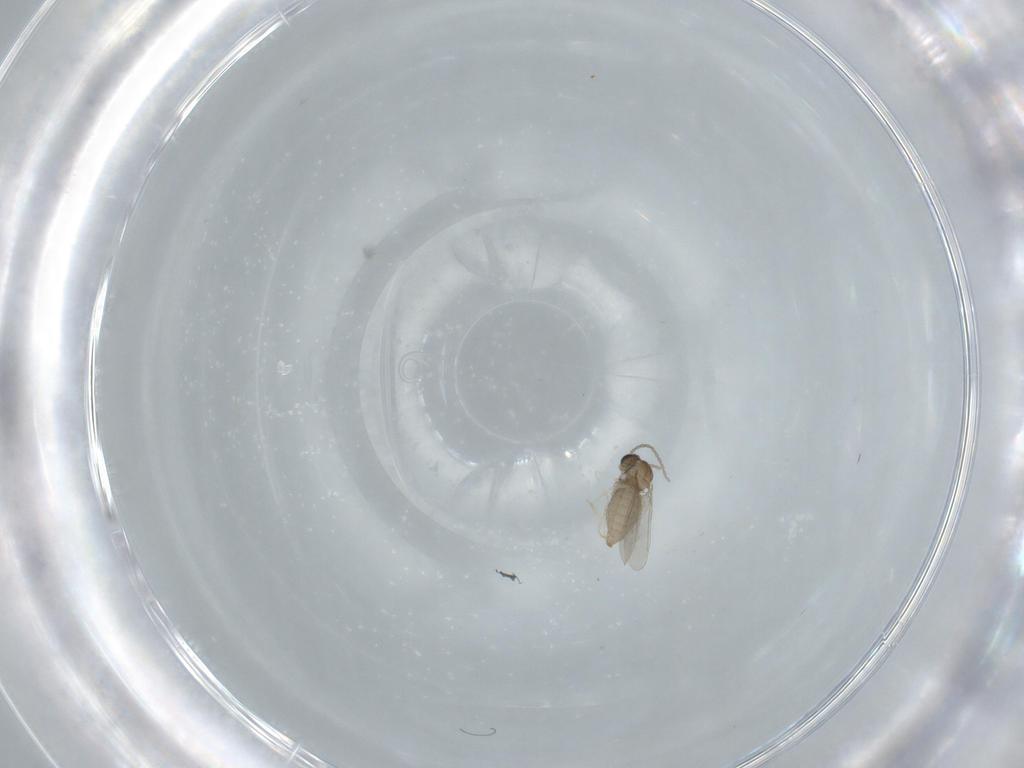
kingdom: Animalia
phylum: Arthropoda
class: Insecta
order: Diptera
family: Cecidomyiidae
